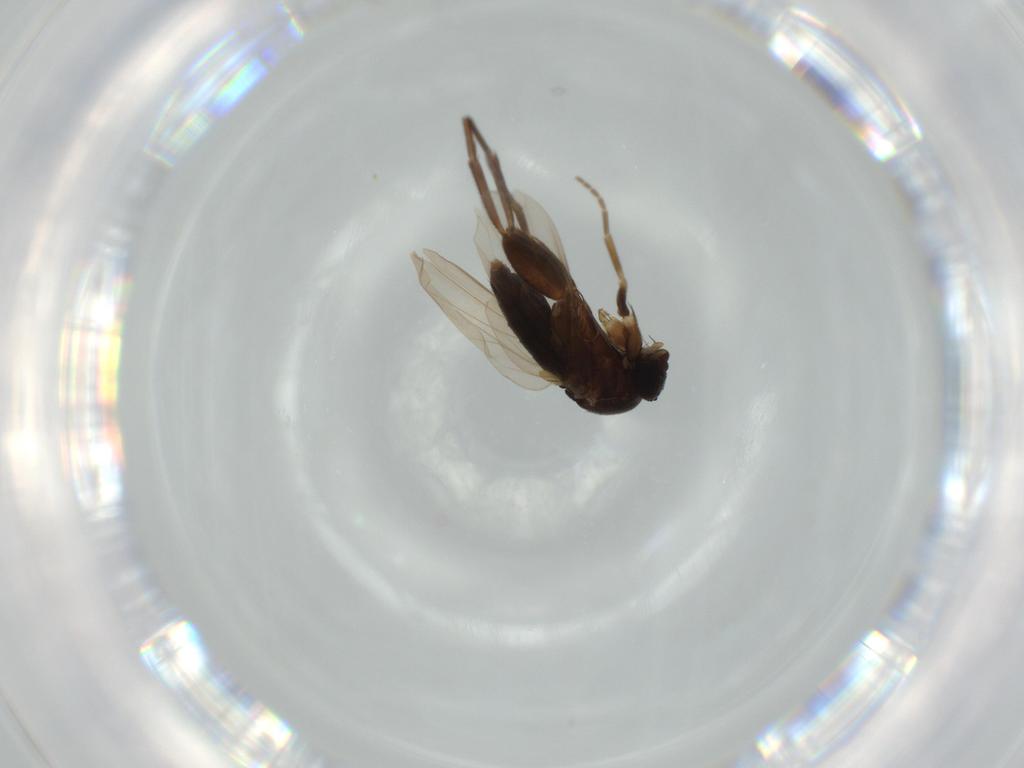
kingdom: Animalia
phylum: Arthropoda
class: Insecta
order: Diptera
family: Phoridae
